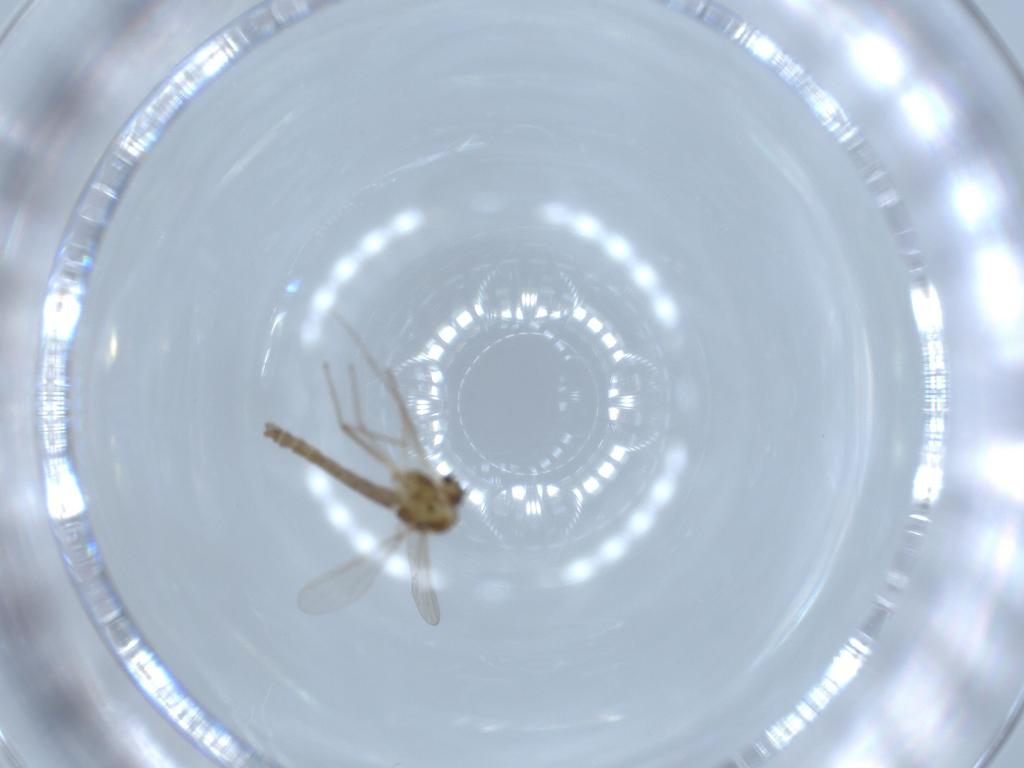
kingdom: Animalia
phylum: Arthropoda
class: Insecta
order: Diptera
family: Chironomidae
